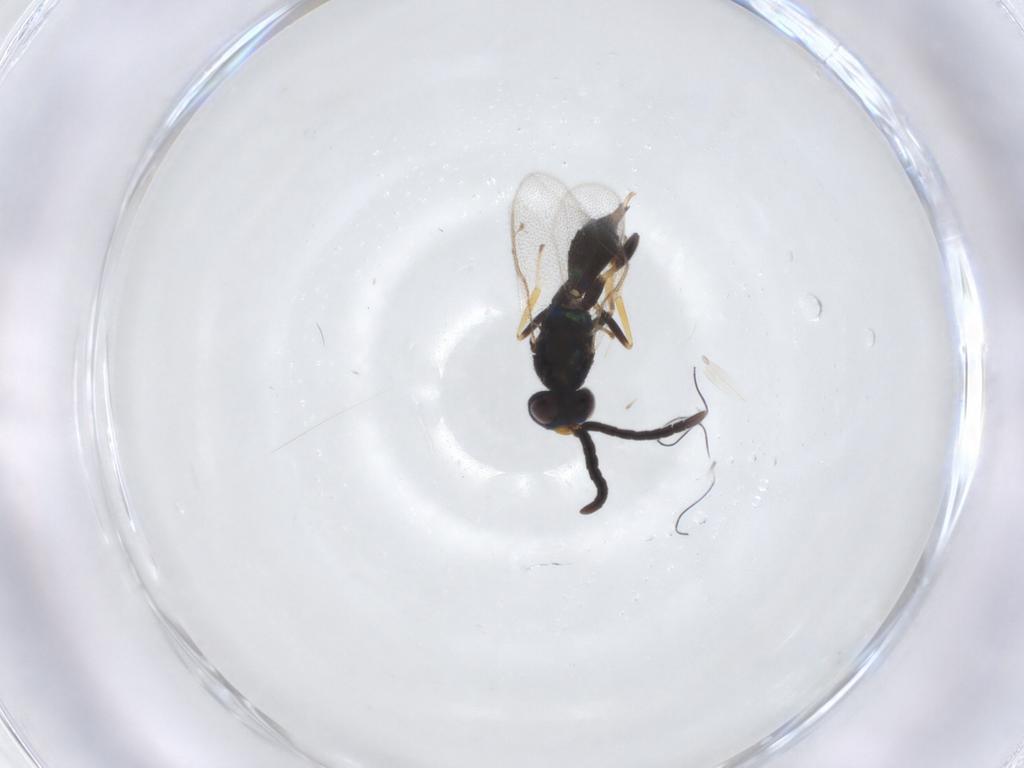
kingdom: Animalia
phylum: Arthropoda
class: Insecta
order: Hymenoptera
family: Eupelmidae
